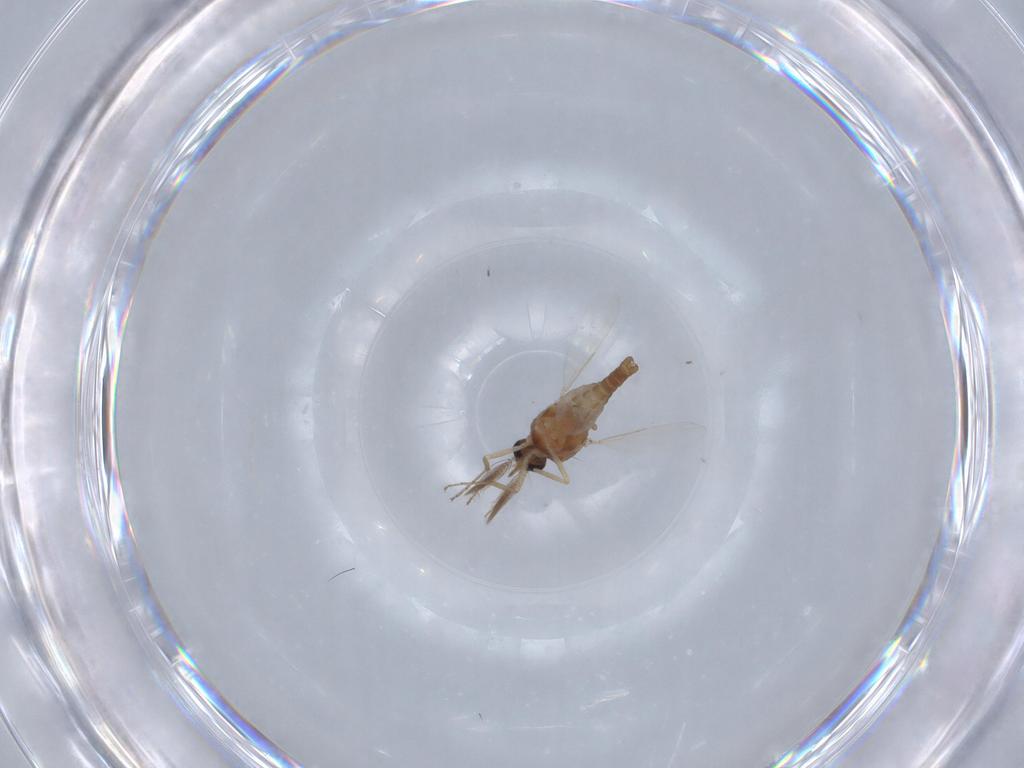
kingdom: Animalia
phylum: Arthropoda
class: Insecta
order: Diptera
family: Ceratopogonidae
